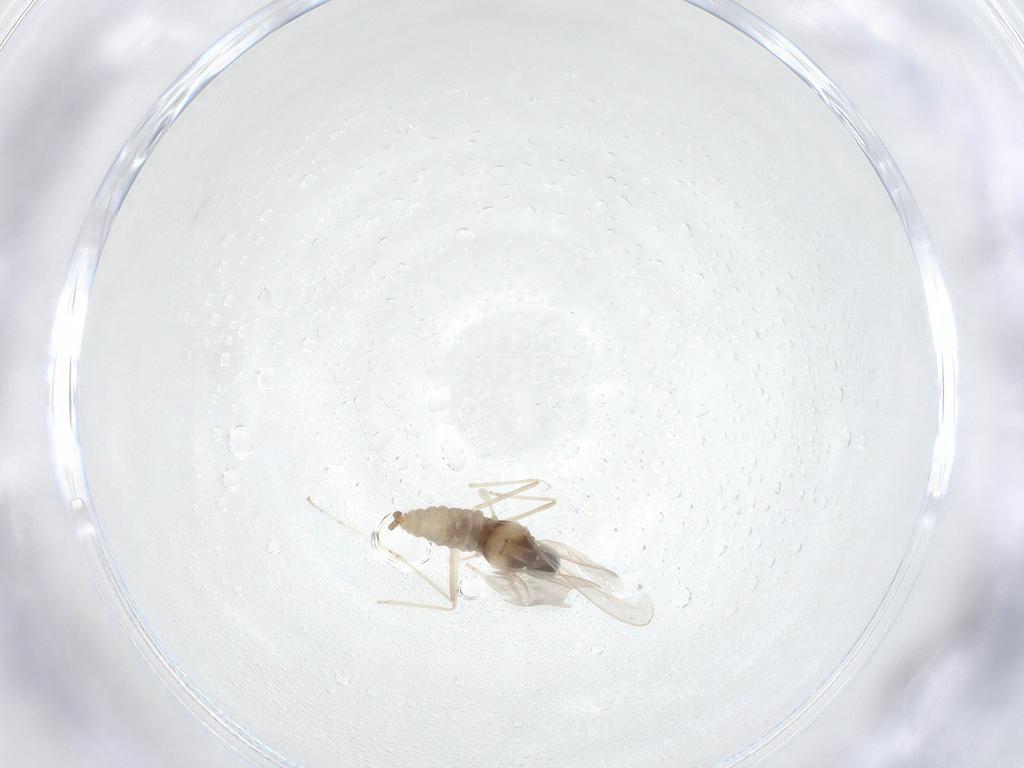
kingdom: Animalia
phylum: Arthropoda
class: Insecta
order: Diptera
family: Cecidomyiidae
